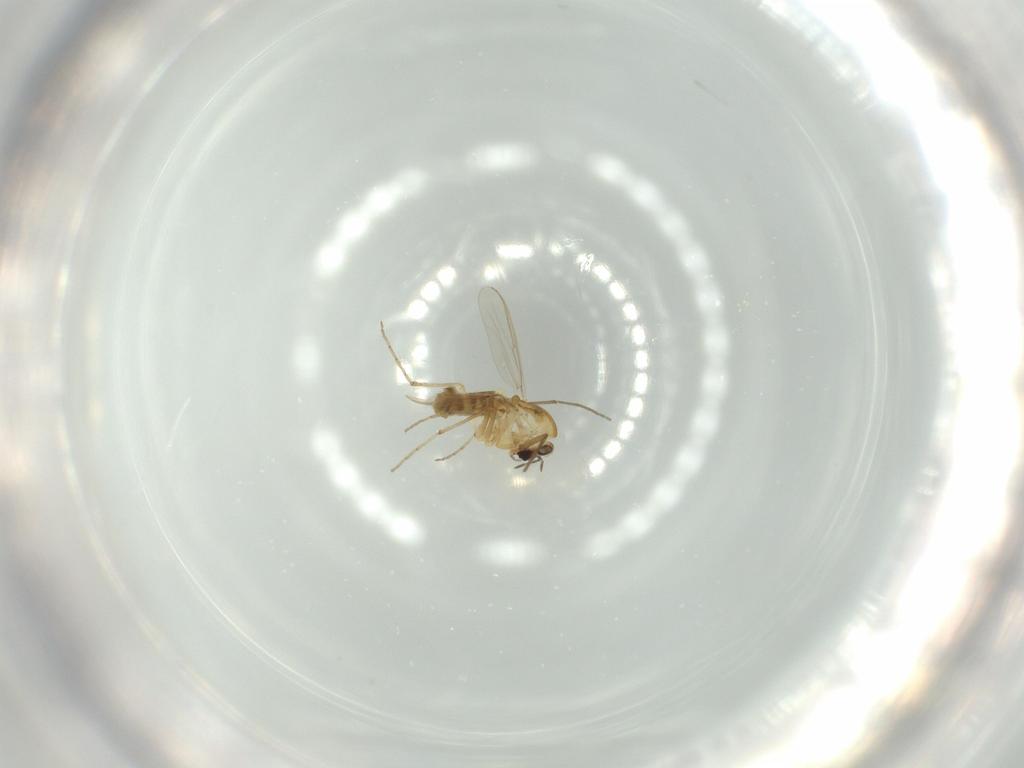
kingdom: Animalia
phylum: Arthropoda
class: Insecta
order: Diptera
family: Chironomidae
